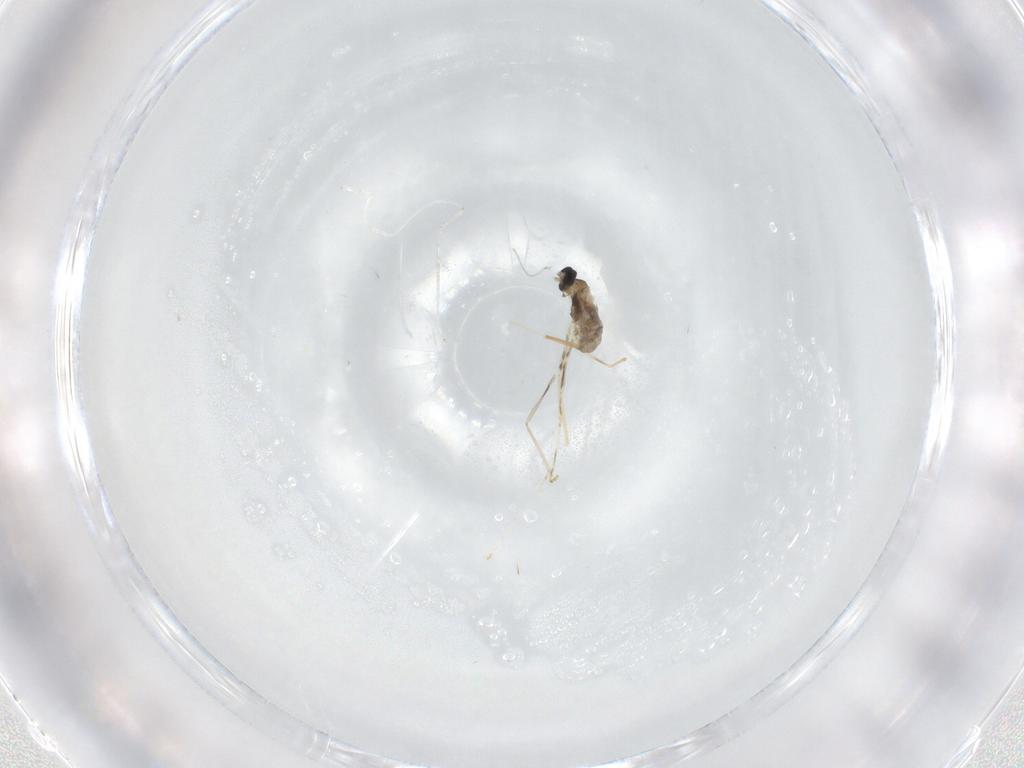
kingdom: Animalia
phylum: Arthropoda
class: Insecta
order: Diptera
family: Cecidomyiidae
